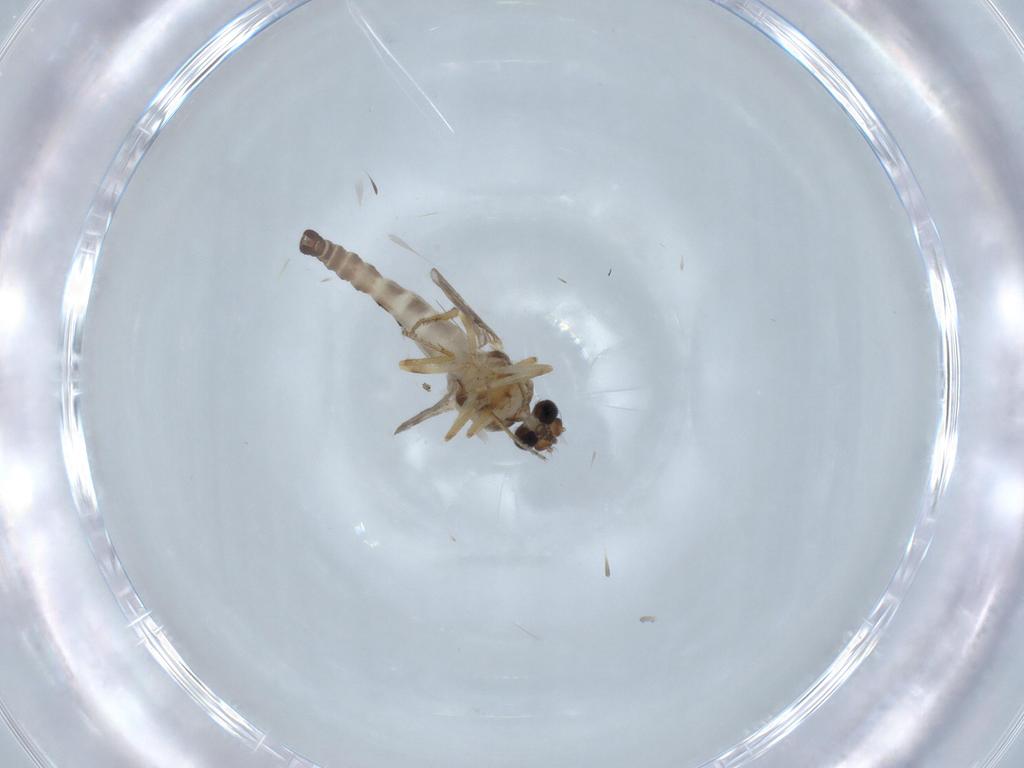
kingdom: Animalia
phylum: Arthropoda
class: Insecta
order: Diptera
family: Ceratopogonidae
